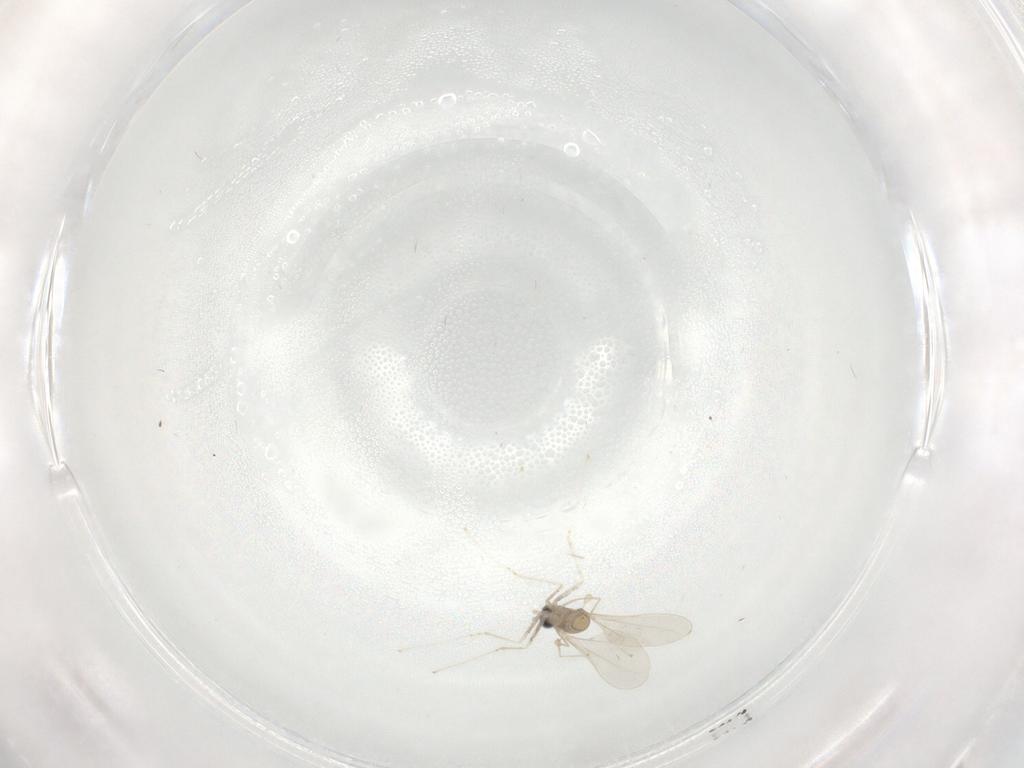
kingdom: Animalia
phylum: Arthropoda
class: Insecta
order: Diptera
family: Cecidomyiidae
